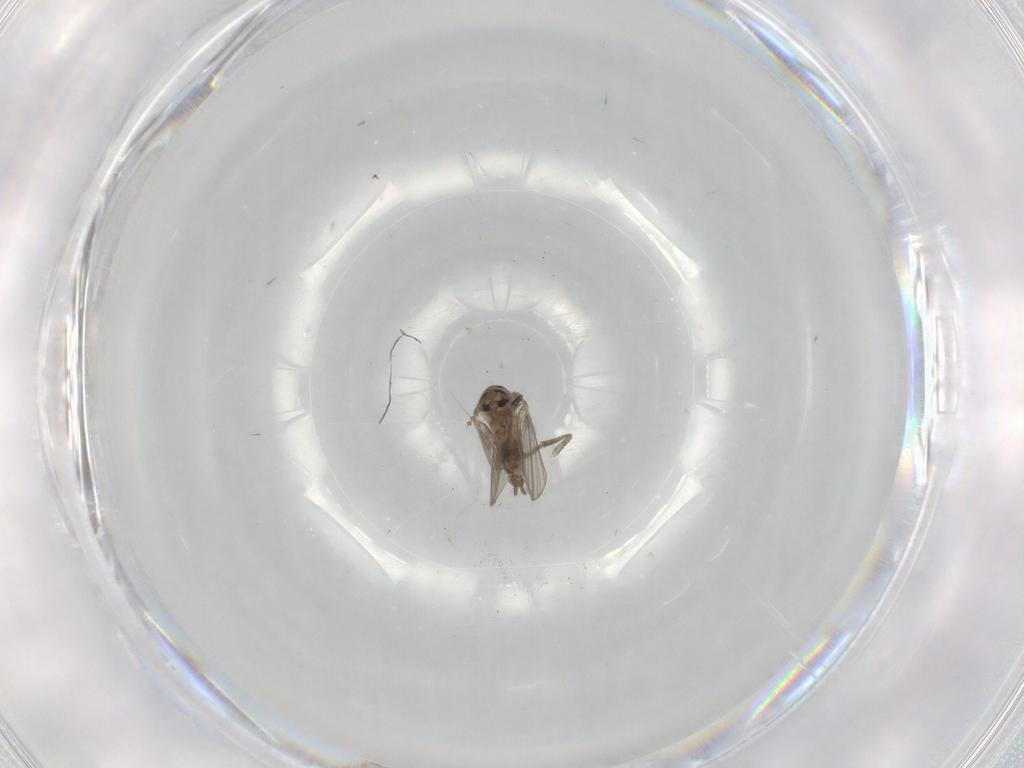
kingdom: Animalia
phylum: Arthropoda
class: Insecta
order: Diptera
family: Psychodidae
